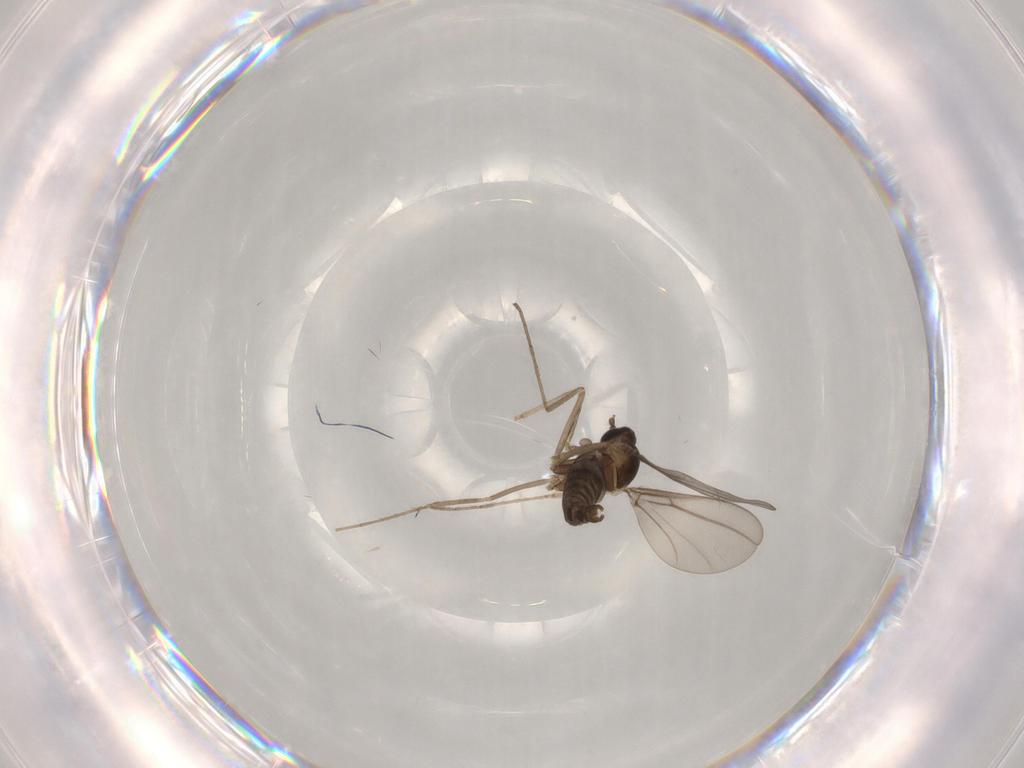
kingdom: Animalia
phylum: Arthropoda
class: Insecta
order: Diptera
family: Cecidomyiidae
